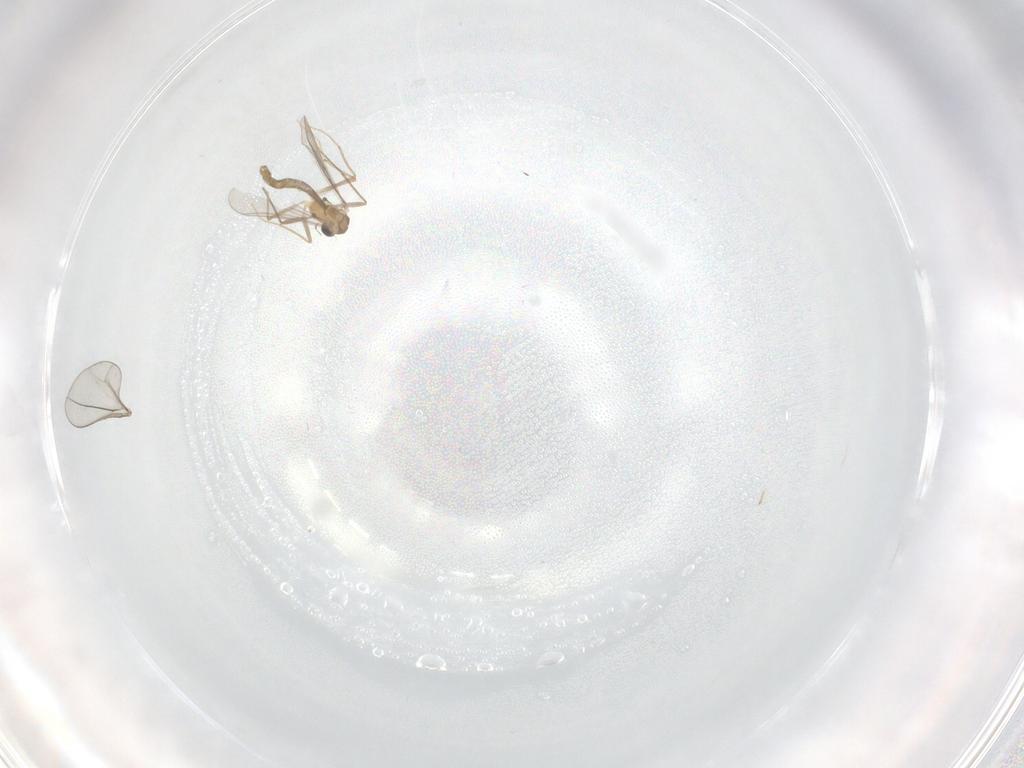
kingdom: Animalia
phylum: Arthropoda
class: Insecta
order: Diptera
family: Chironomidae
